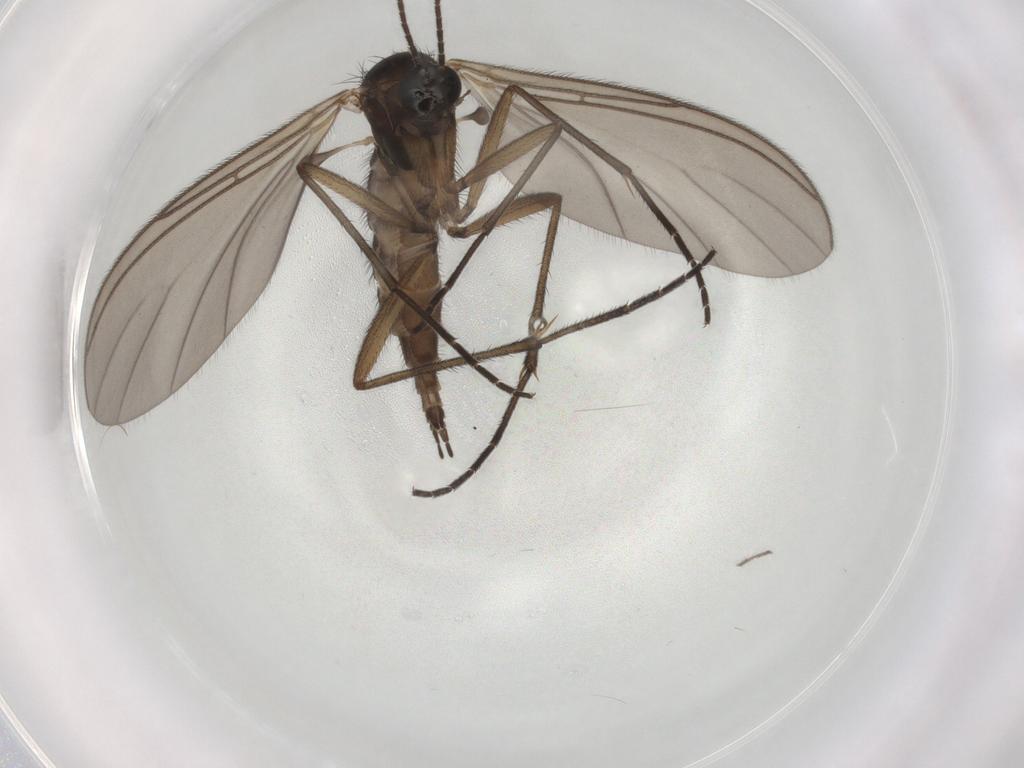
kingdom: Animalia
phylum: Arthropoda
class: Insecta
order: Diptera
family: Sciaridae
